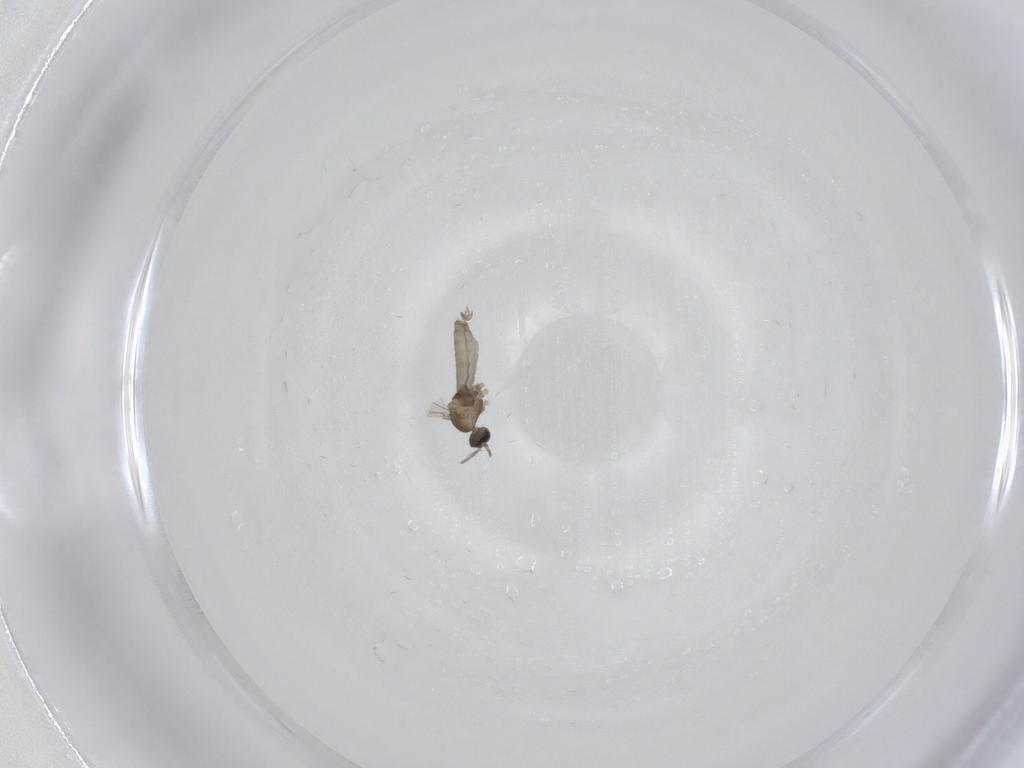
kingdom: Animalia
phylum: Arthropoda
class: Insecta
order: Diptera
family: Cecidomyiidae
